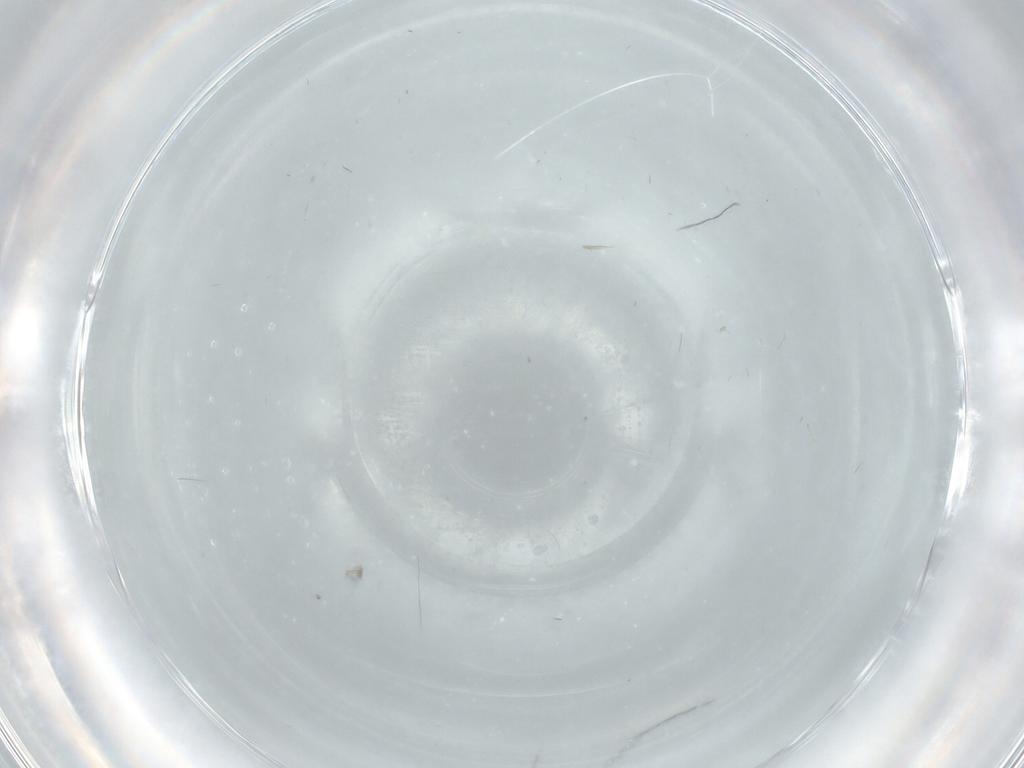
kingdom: Animalia
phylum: Arthropoda
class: Insecta
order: Diptera
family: Cecidomyiidae
